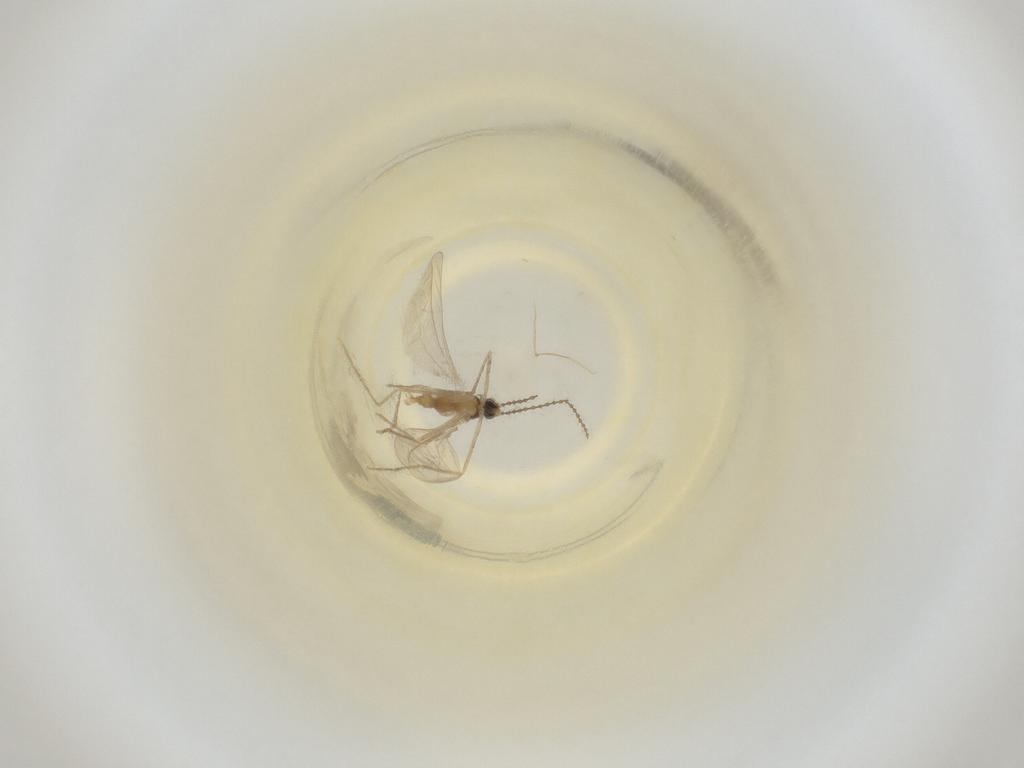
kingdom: Animalia
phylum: Arthropoda
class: Insecta
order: Diptera
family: Cecidomyiidae
